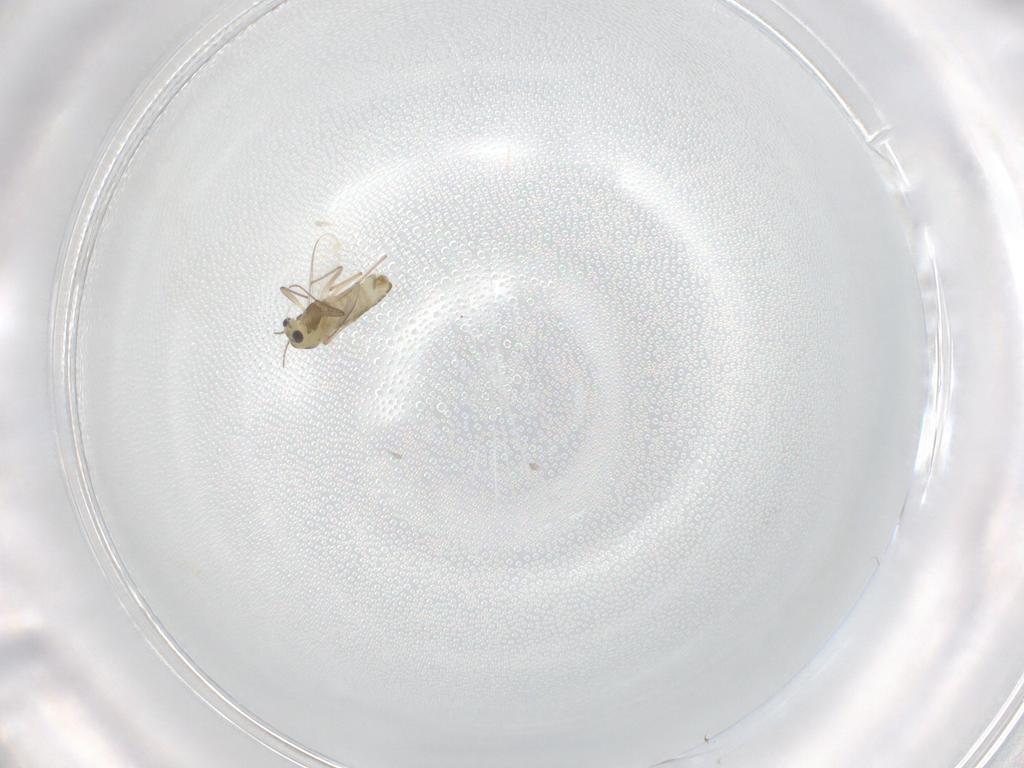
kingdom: Animalia
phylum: Arthropoda
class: Insecta
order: Diptera
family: Chironomidae
